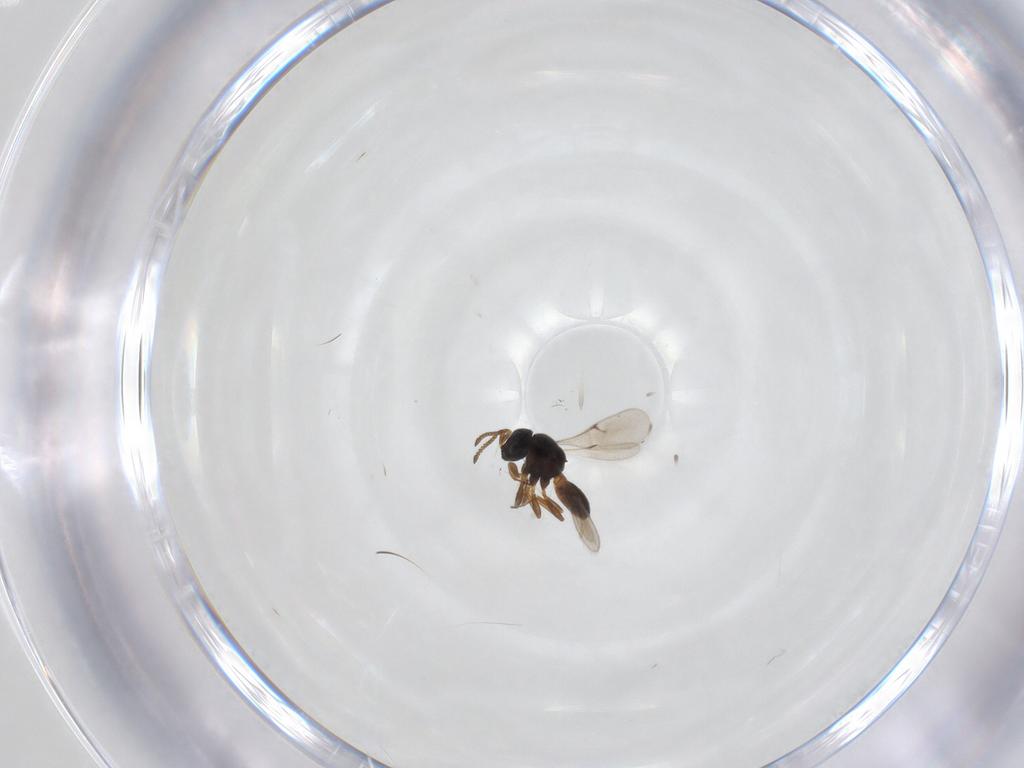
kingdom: Animalia
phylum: Arthropoda
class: Insecta
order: Hymenoptera
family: Scelionidae
